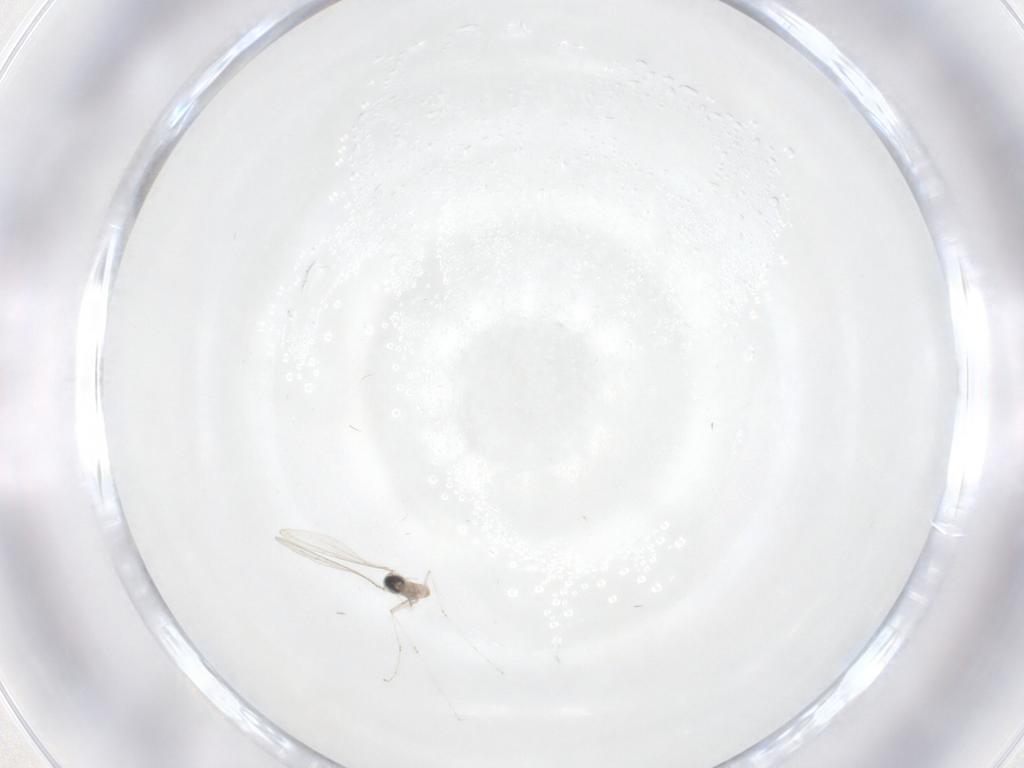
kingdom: Animalia
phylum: Arthropoda
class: Insecta
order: Diptera
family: Cecidomyiidae
